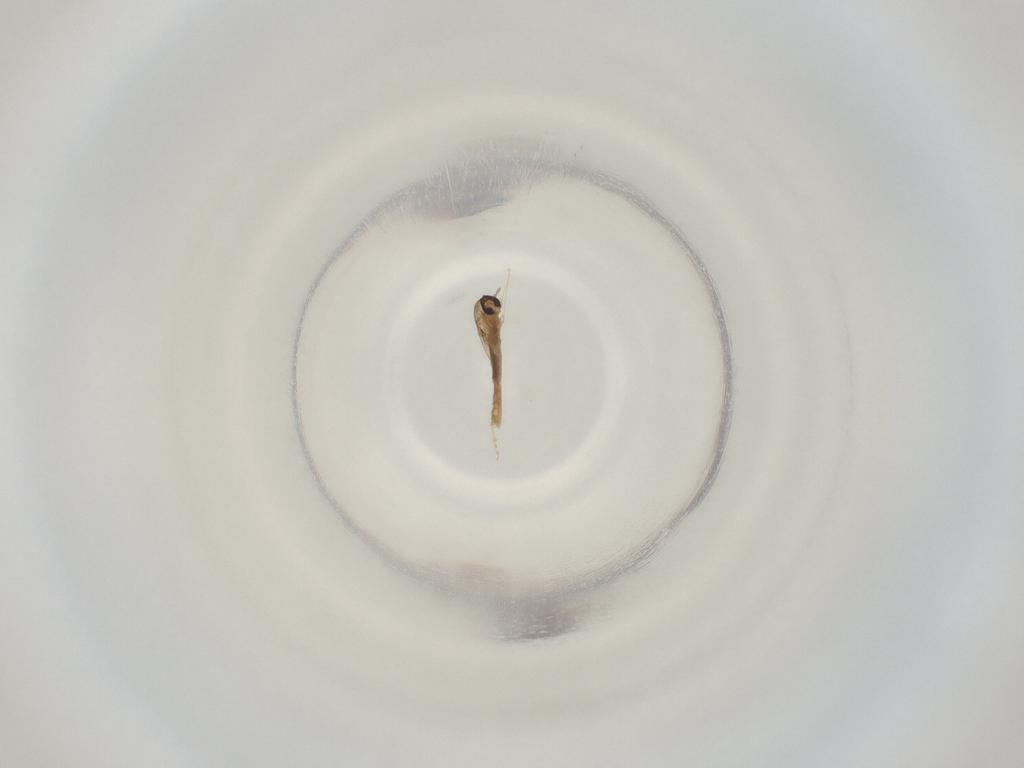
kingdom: Animalia
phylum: Arthropoda
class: Insecta
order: Diptera
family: Cecidomyiidae
